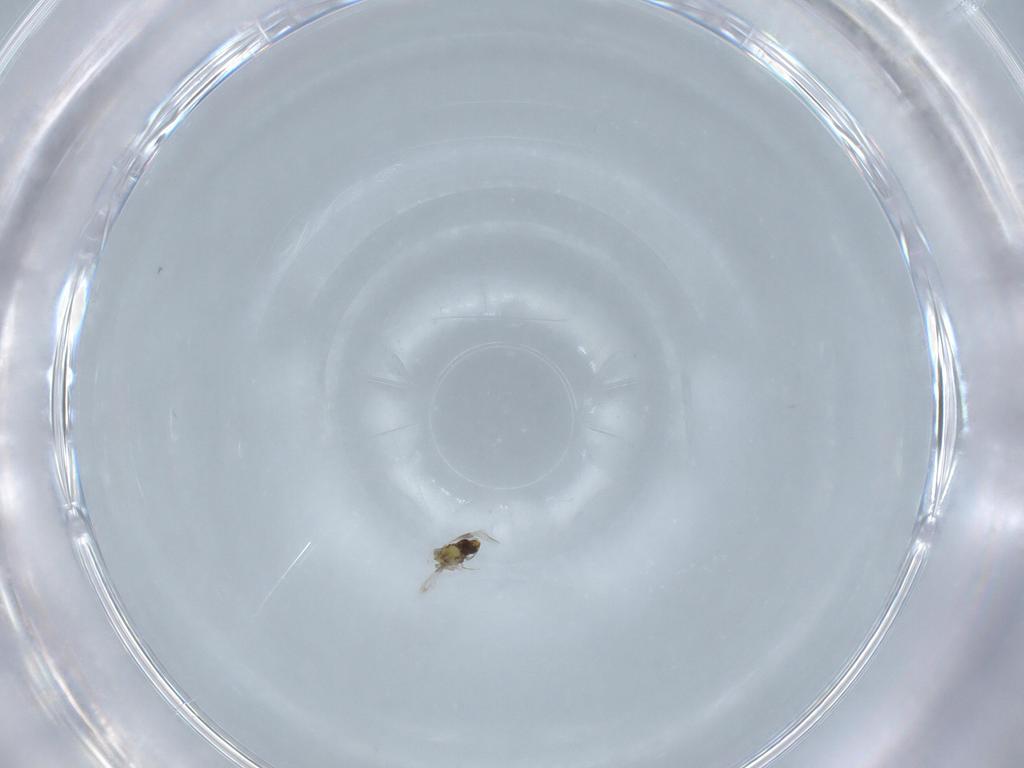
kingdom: Animalia
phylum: Arthropoda
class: Insecta
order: Hymenoptera
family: Aphelinidae
